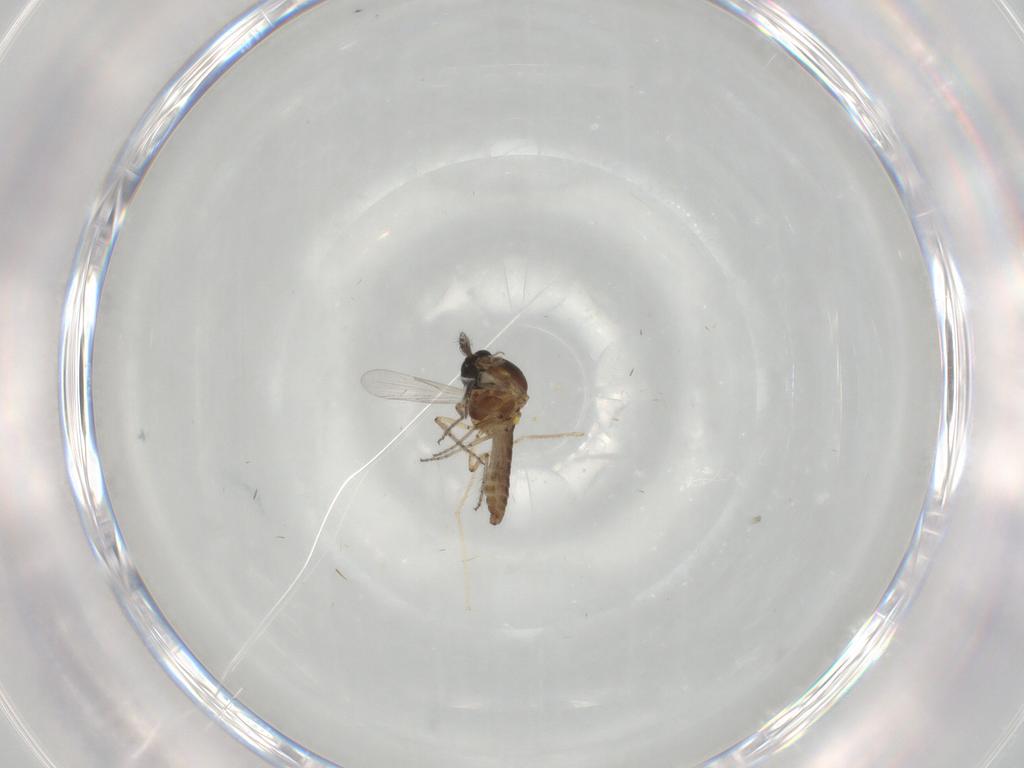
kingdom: Animalia
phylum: Arthropoda
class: Insecta
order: Diptera
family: Ceratopogonidae
